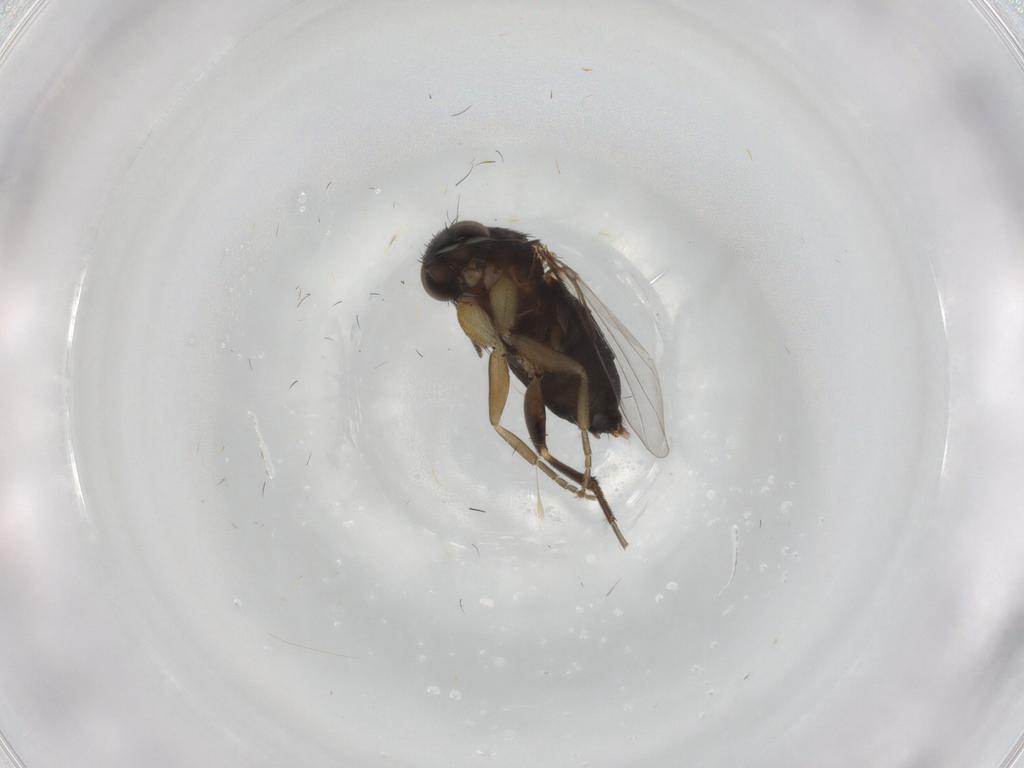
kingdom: Animalia
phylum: Arthropoda
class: Insecta
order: Diptera
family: Phoridae
